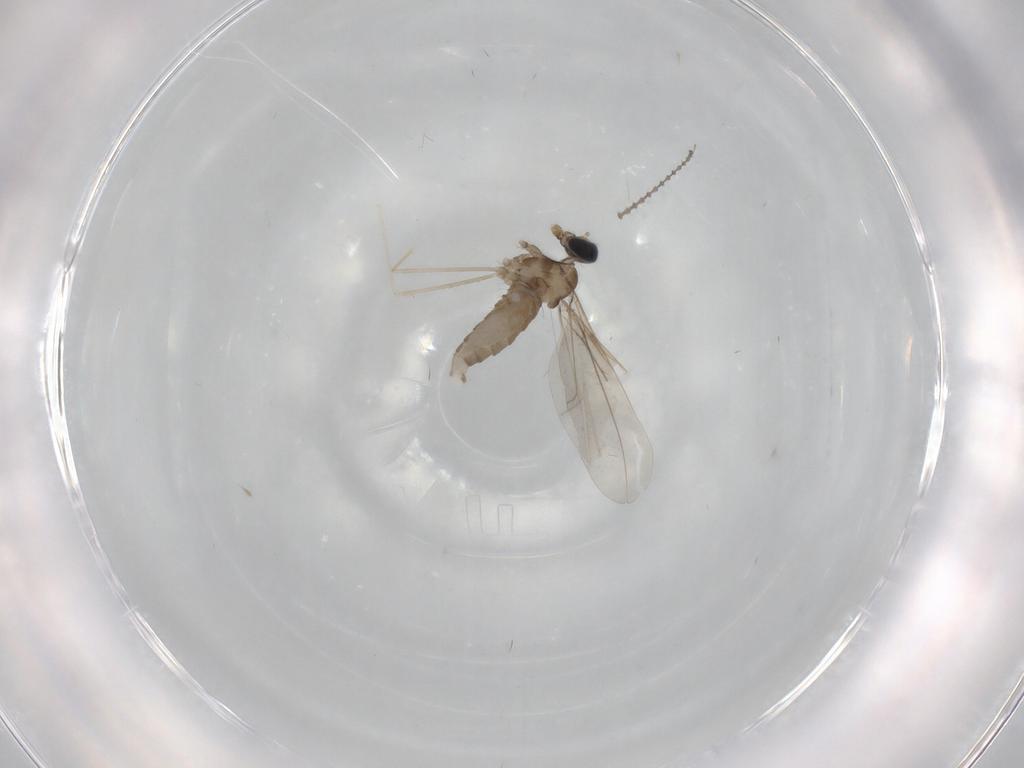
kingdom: Animalia
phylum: Arthropoda
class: Insecta
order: Diptera
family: Cecidomyiidae
